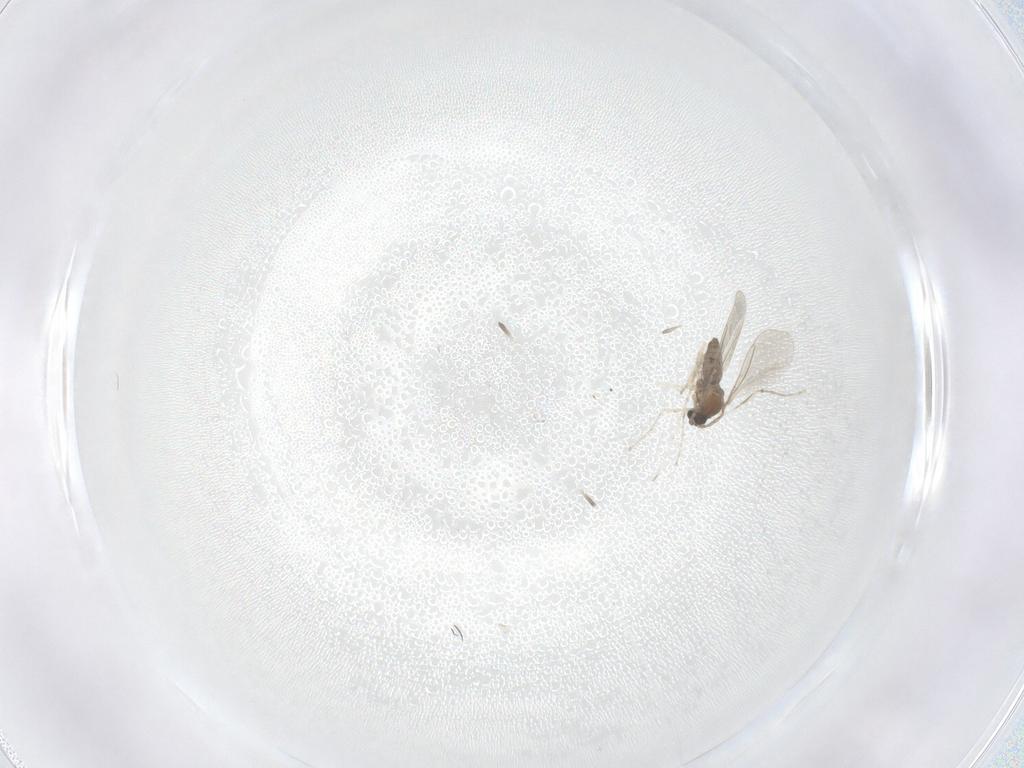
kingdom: Animalia
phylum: Arthropoda
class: Insecta
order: Diptera
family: Cecidomyiidae
